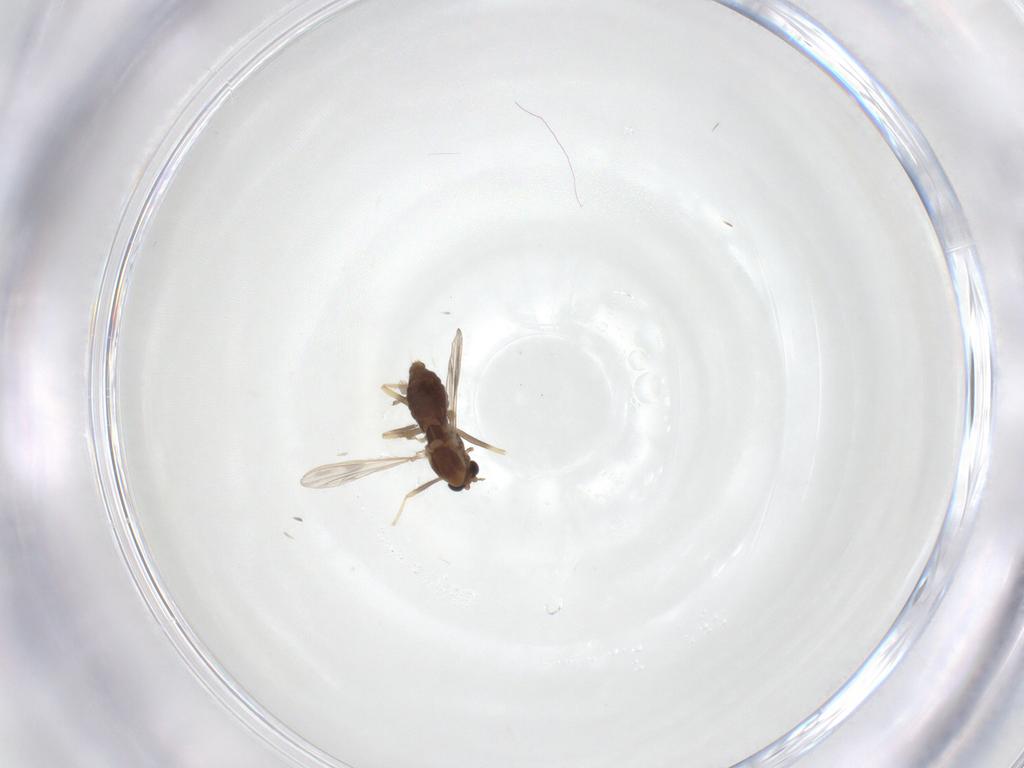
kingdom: Animalia
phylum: Arthropoda
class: Insecta
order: Diptera
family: Chironomidae
